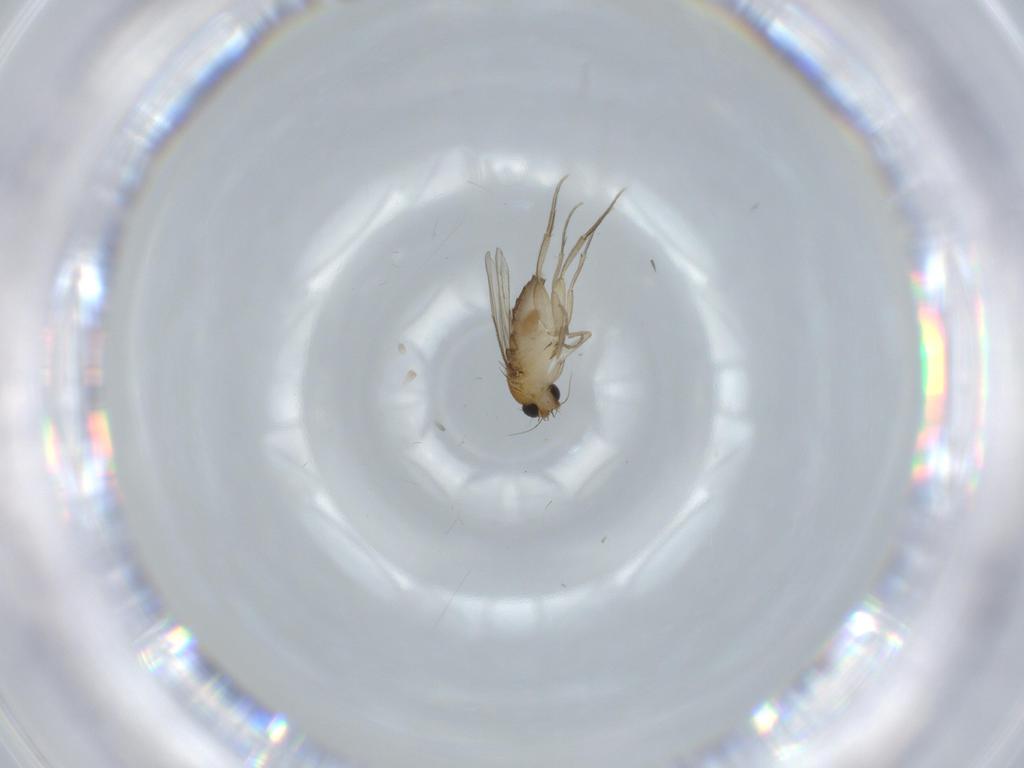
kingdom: Animalia
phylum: Arthropoda
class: Insecta
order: Diptera
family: Phoridae
